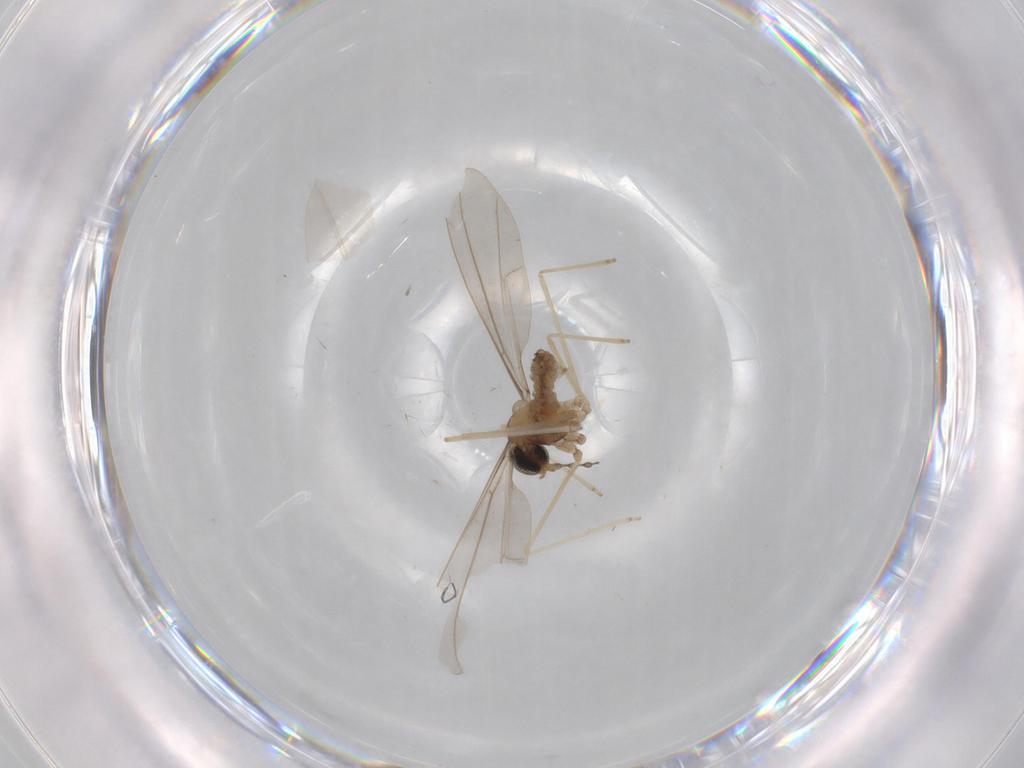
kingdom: Animalia
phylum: Arthropoda
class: Insecta
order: Diptera
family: Cecidomyiidae
